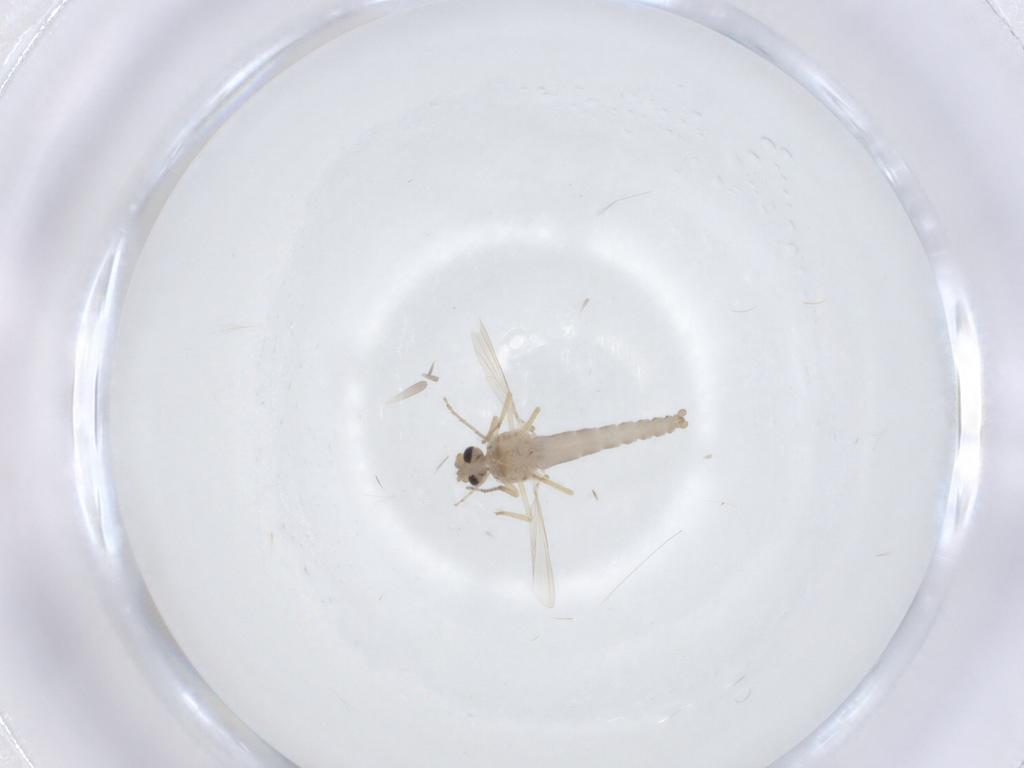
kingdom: Animalia
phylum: Arthropoda
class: Insecta
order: Diptera
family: Ceratopogonidae
